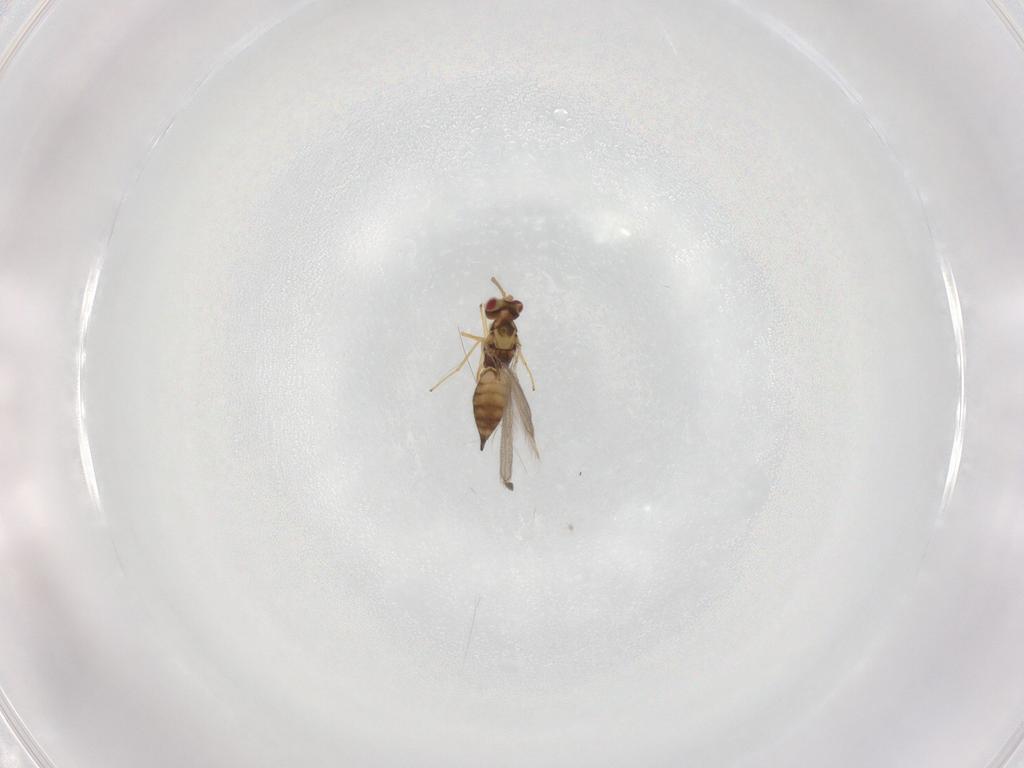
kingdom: Animalia
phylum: Arthropoda
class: Insecta
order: Hymenoptera
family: Eulophidae
